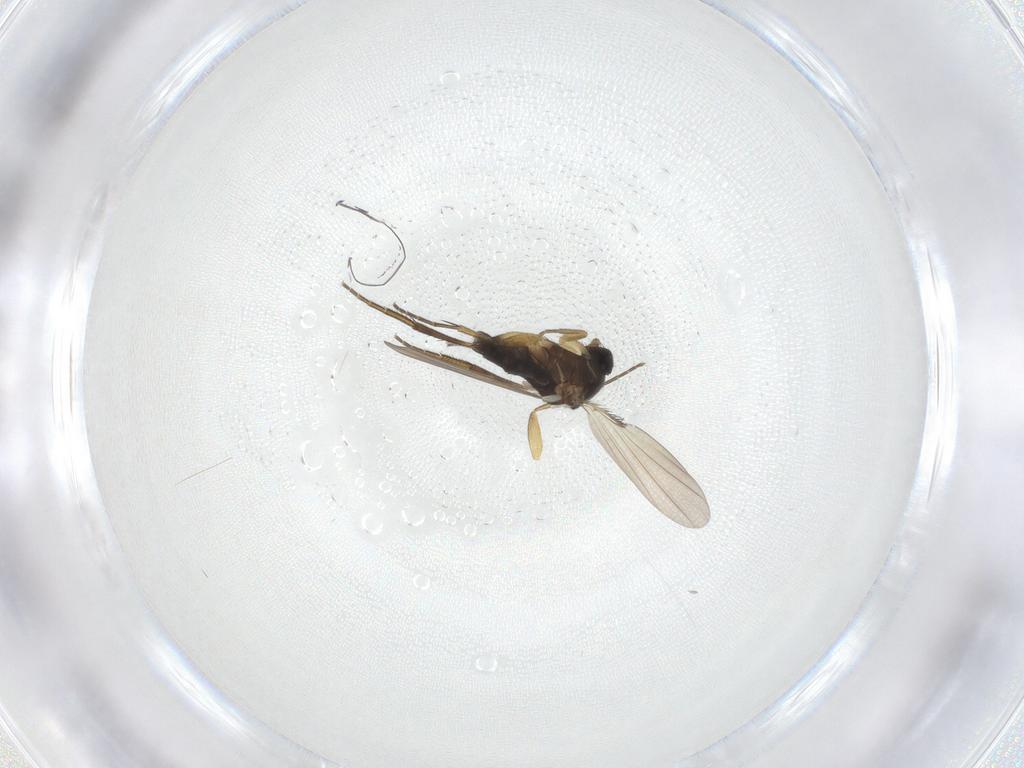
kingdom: Animalia
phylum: Arthropoda
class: Insecta
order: Diptera
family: Phoridae
